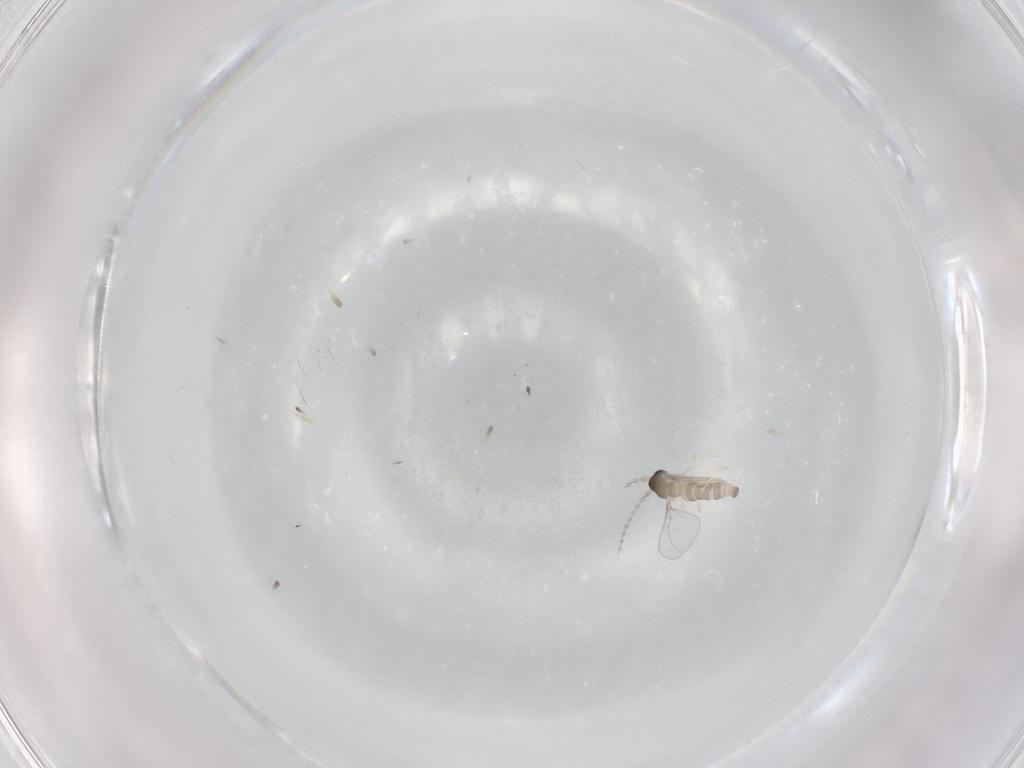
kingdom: Animalia
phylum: Arthropoda
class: Insecta
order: Diptera
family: Cecidomyiidae
